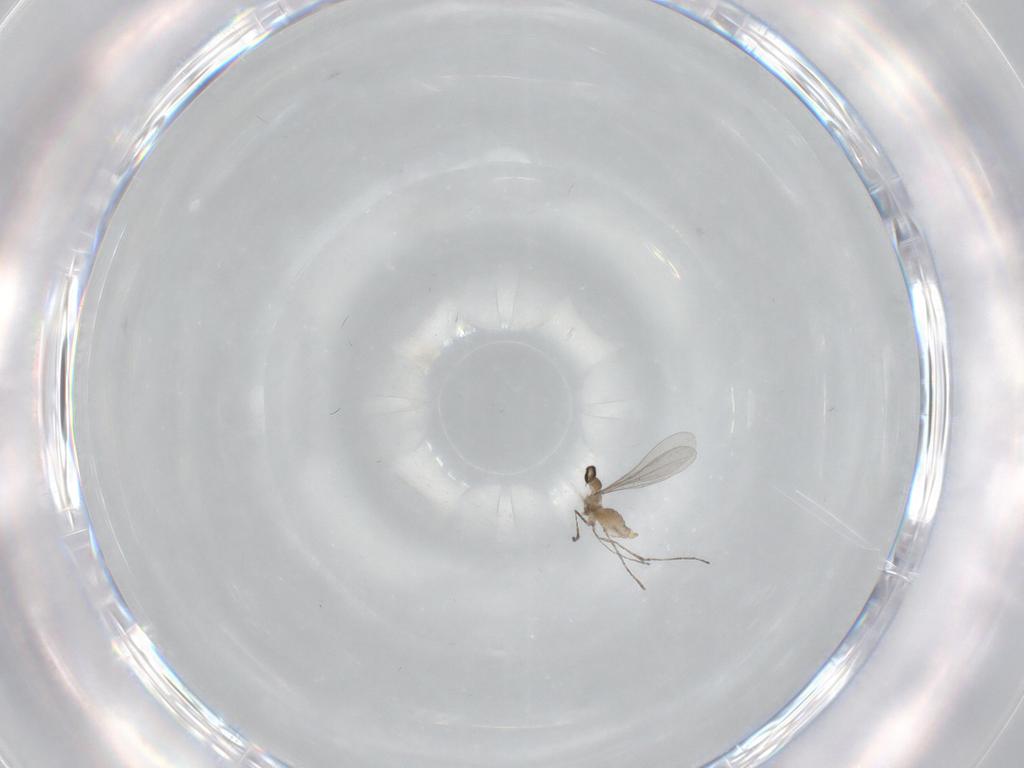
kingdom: Animalia
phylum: Arthropoda
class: Insecta
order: Diptera
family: Cecidomyiidae
